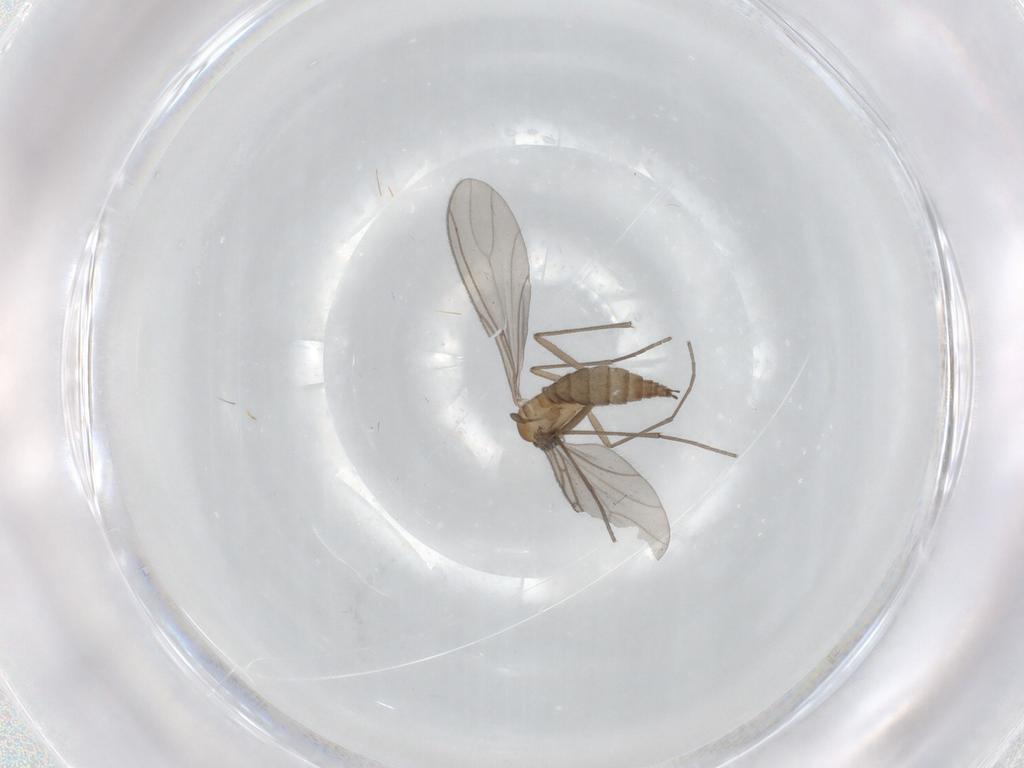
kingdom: Animalia
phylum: Arthropoda
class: Insecta
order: Diptera
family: Sciaridae
